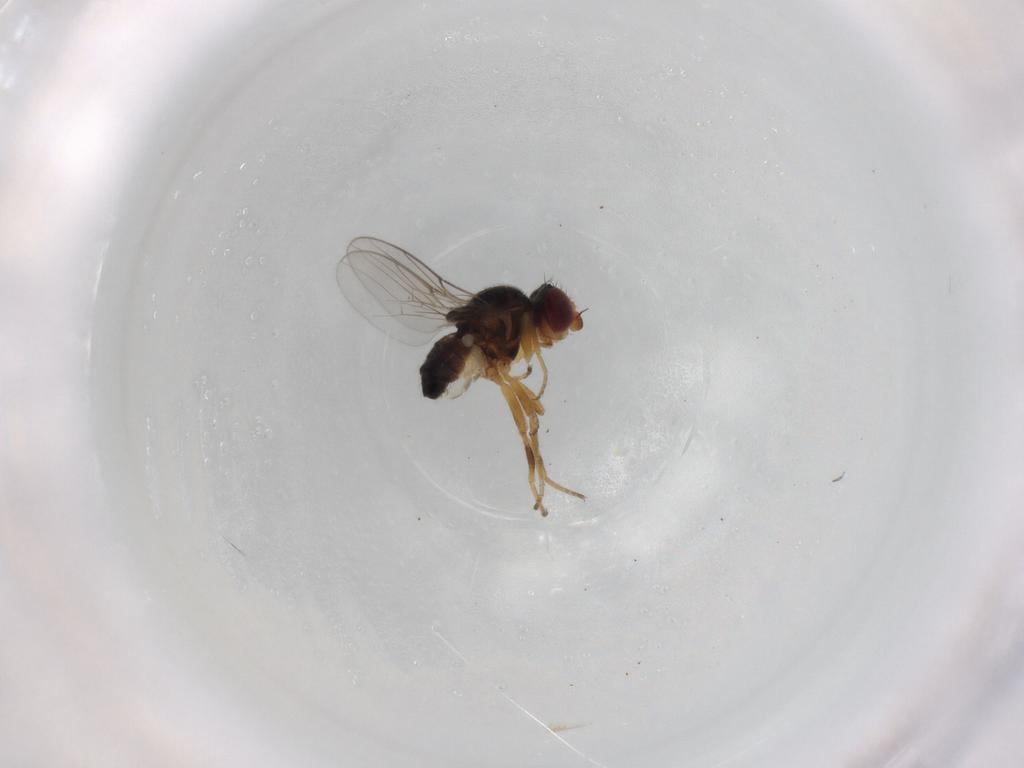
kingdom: Animalia
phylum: Arthropoda
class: Insecta
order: Diptera
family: Chloropidae
